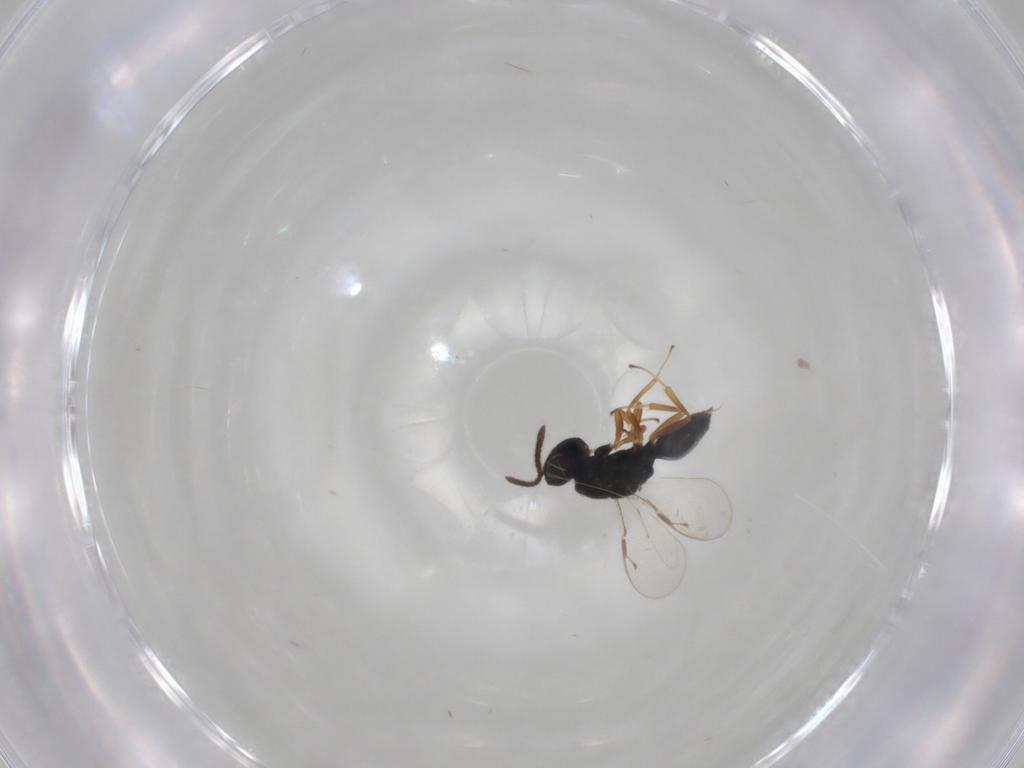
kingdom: Animalia
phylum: Arthropoda
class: Insecta
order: Hymenoptera
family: Pteromalidae
